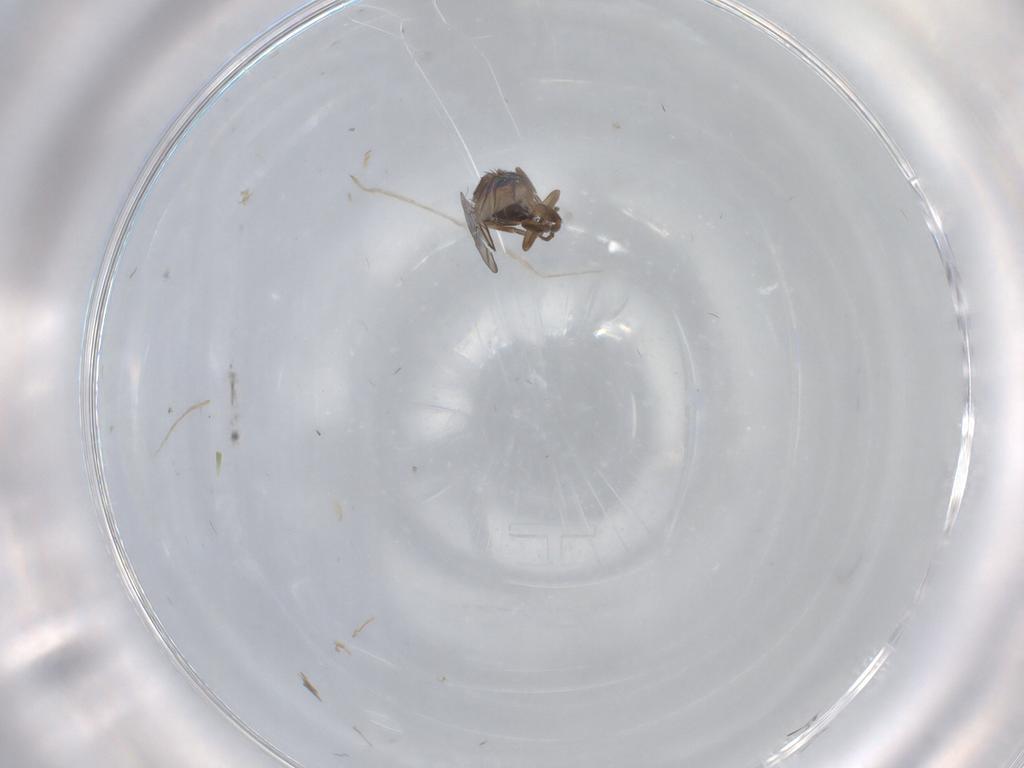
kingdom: Animalia
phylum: Arthropoda
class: Insecta
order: Diptera
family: Phoridae
